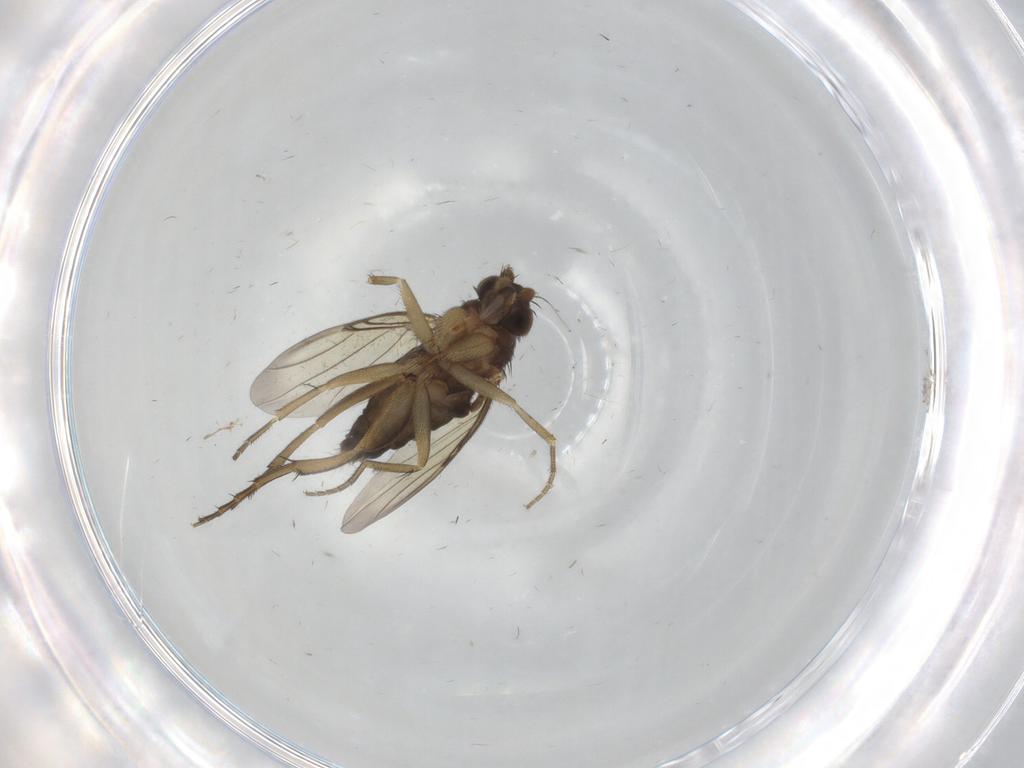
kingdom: Animalia
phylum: Arthropoda
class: Insecta
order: Diptera
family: Phoridae
